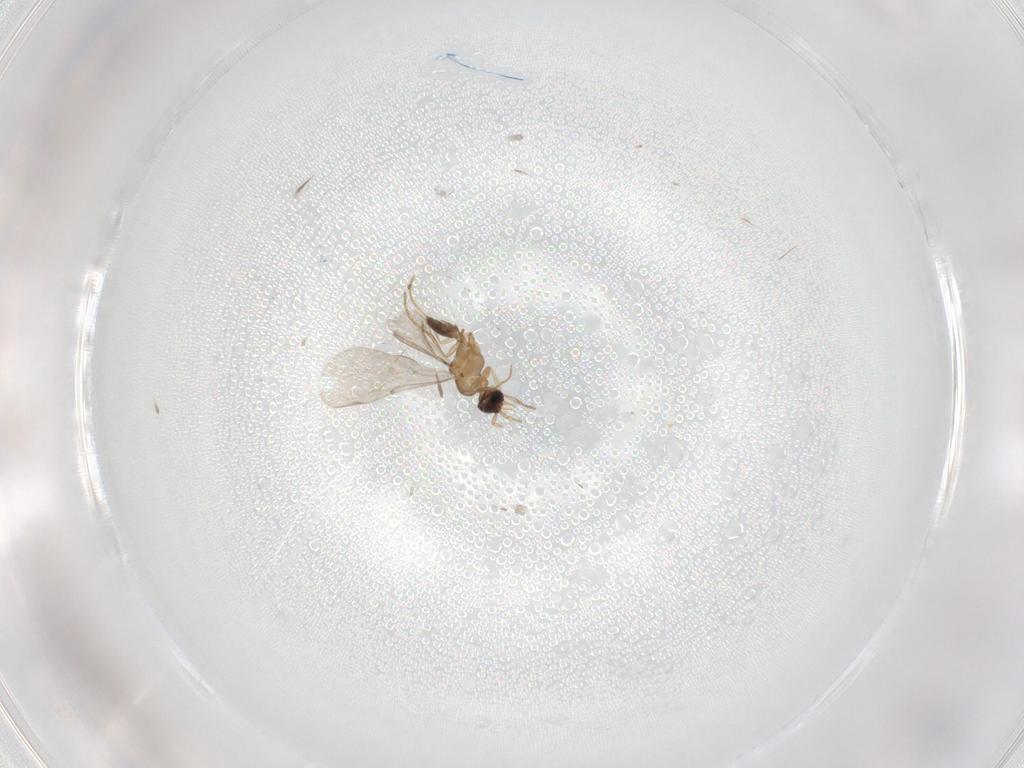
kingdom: Animalia
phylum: Arthropoda
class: Insecta
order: Hymenoptera
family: Formicidae
